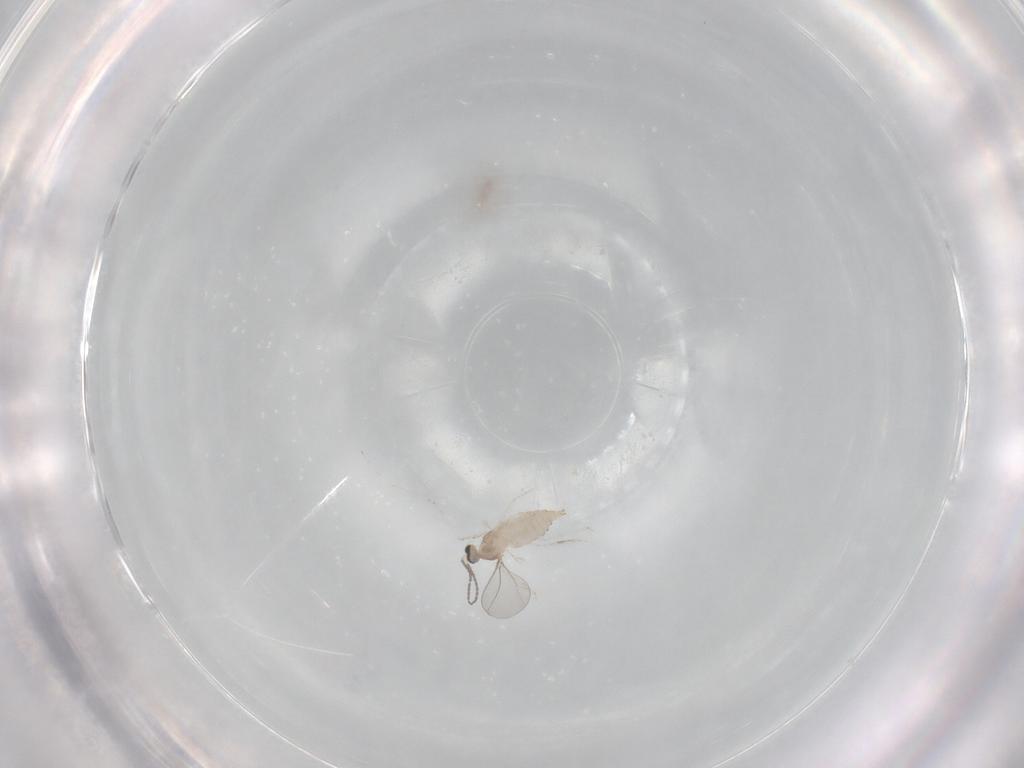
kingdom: Animalia
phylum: Arthropoda
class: Insecta
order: Diptera
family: Cecidomyiidae
